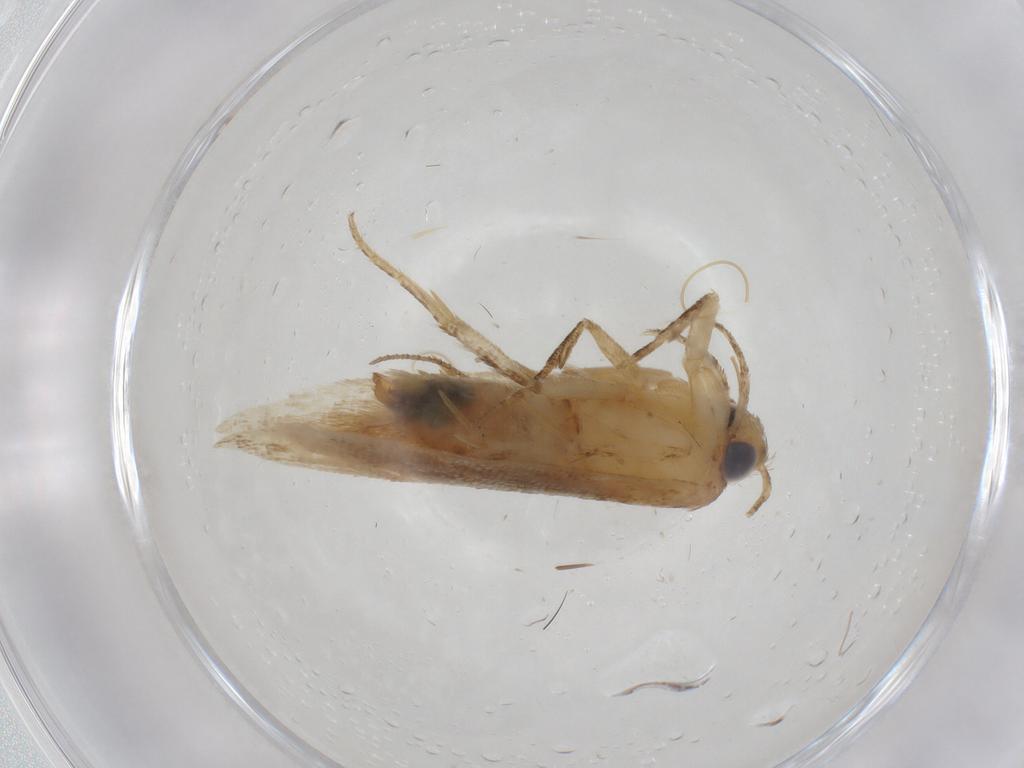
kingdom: Animalia
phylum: Arthropoda
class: Insecta
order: Lepidoptera
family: Gelechiidae
